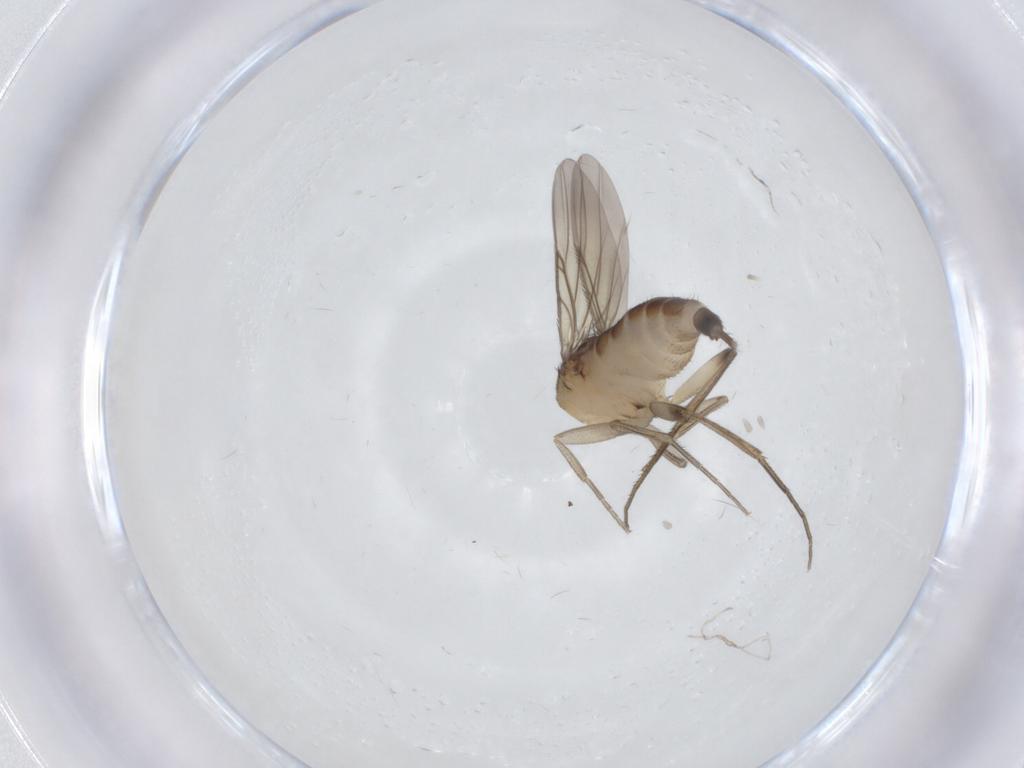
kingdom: Animalia
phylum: Arthropoda
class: Insecta
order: Diptera
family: Phoridae
